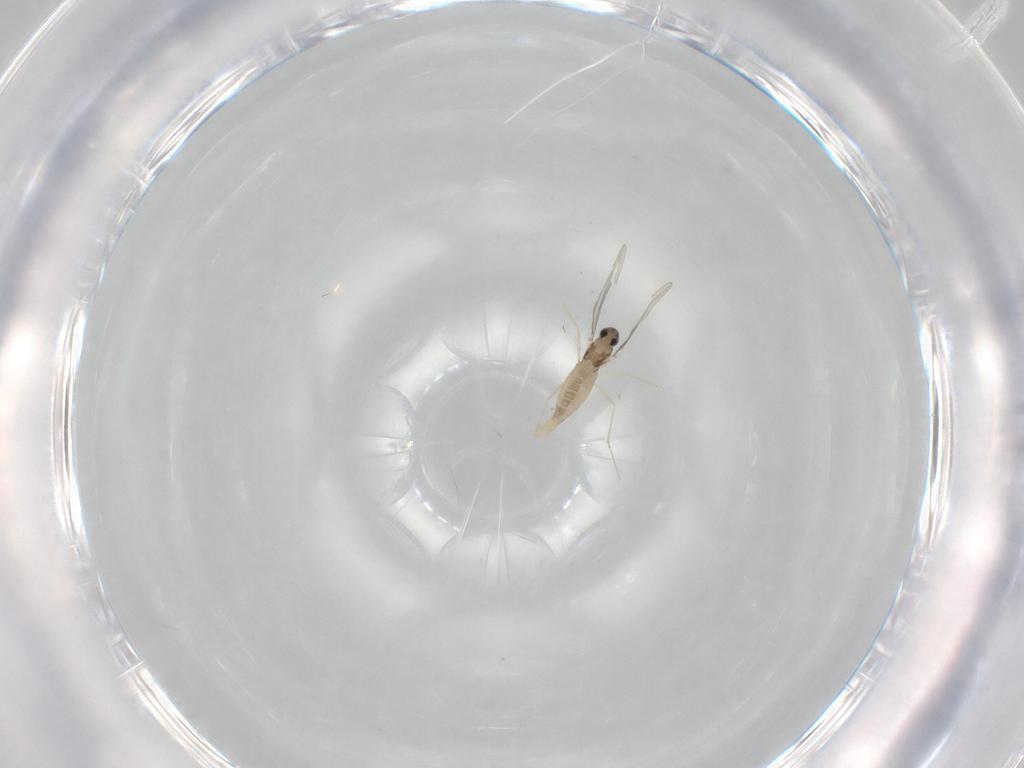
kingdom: Animalia
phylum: Arthropoda
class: Insecta
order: Diptera
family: Cecidomyiidae
